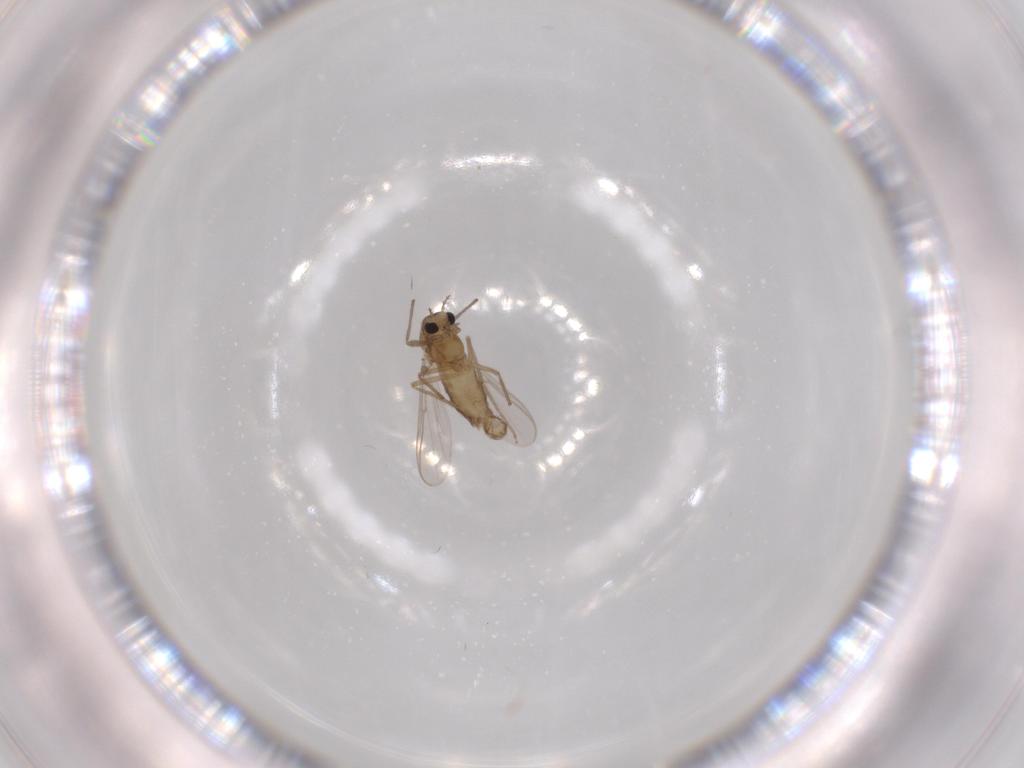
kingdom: Animalia
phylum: Arthropoda
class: Insecta
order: Diptera
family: Chironomidae
